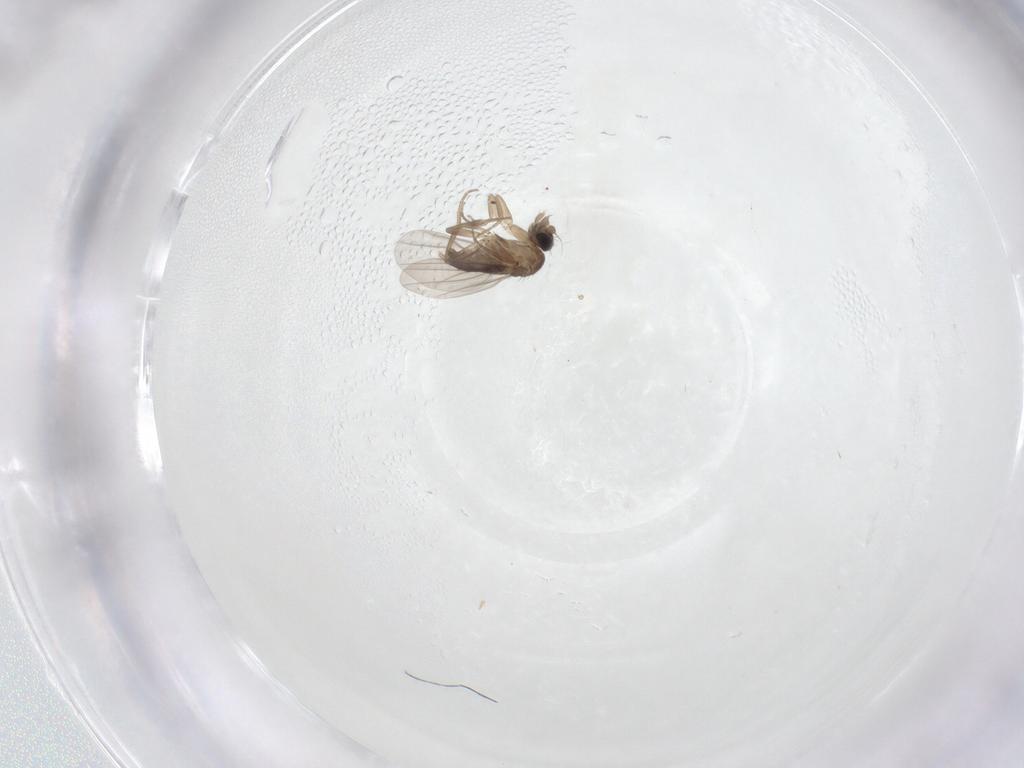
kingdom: Animalia
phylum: Arthropoda
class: Insecta
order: Diptera
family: Phoridae
